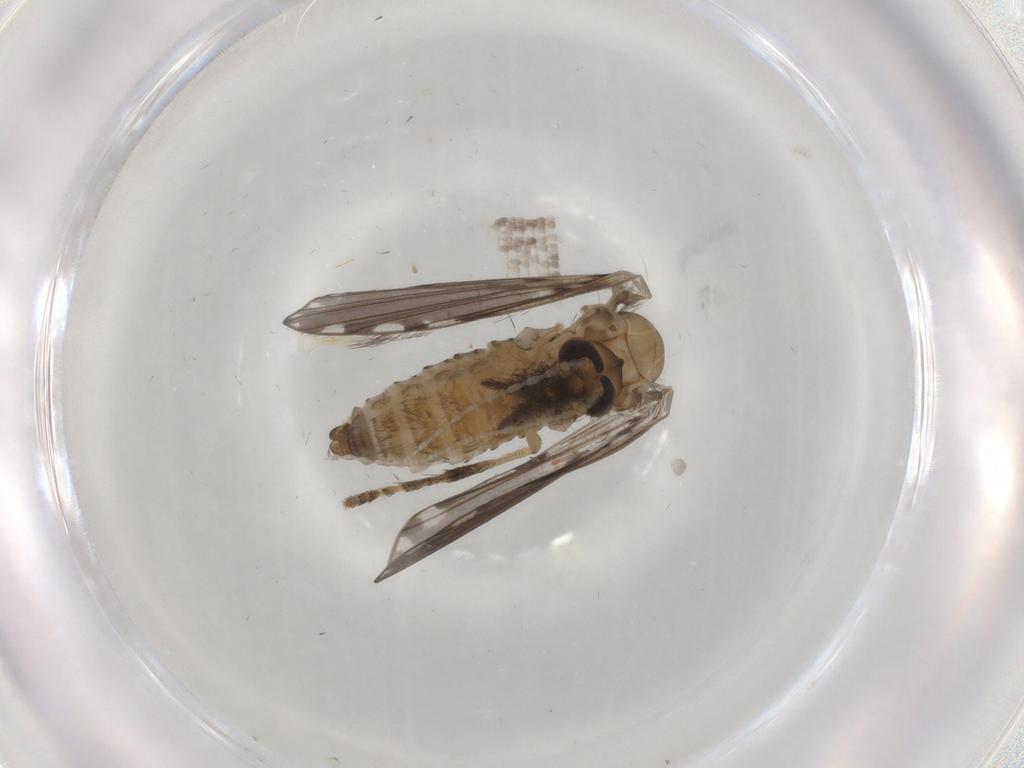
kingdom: Animalia
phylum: Arthropoda
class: Insecta
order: Diptera
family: Psychodidae
